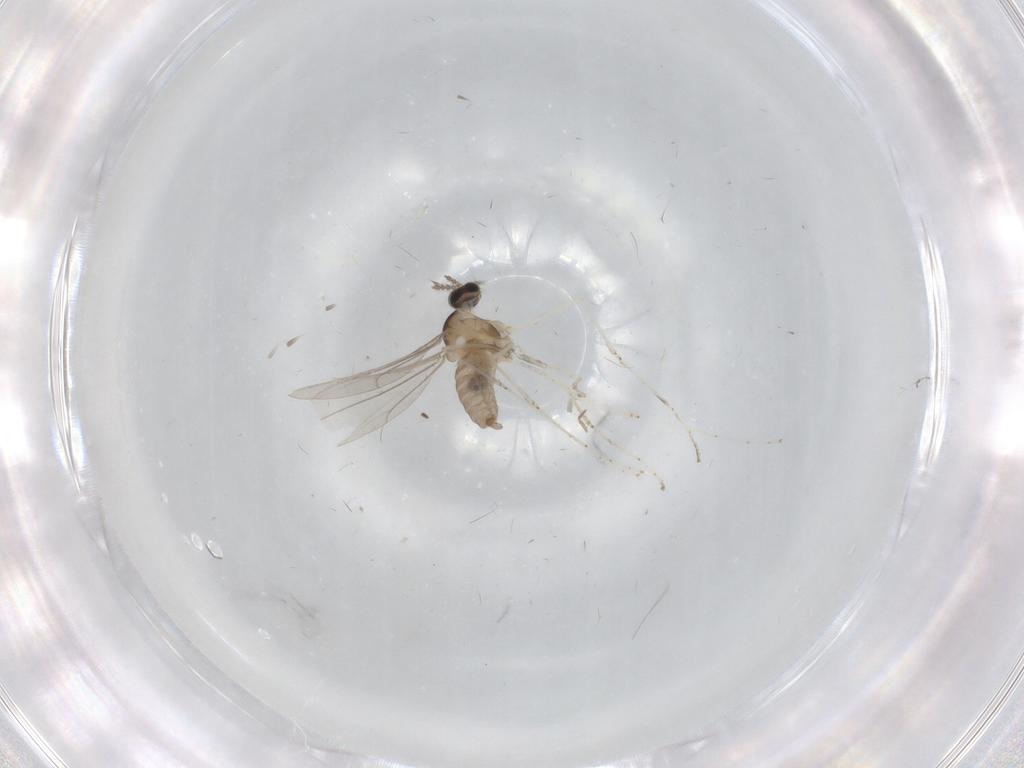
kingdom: Animalia
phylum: Arthropoda
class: Insecta
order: Diptera
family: Cecidomyiidae
